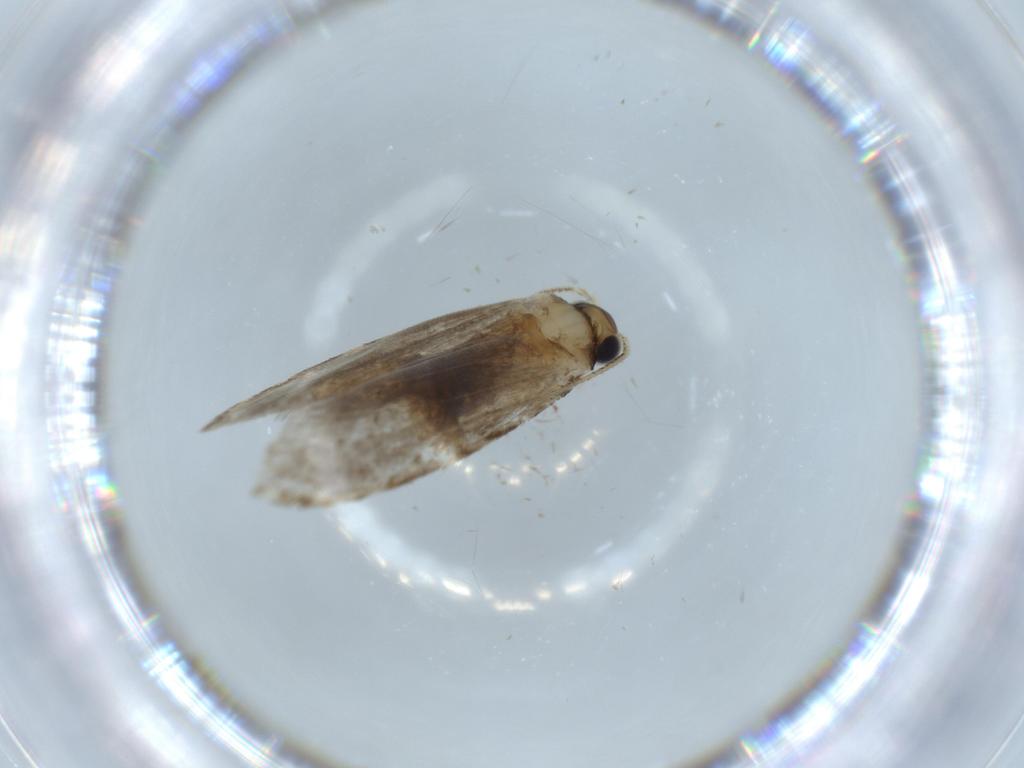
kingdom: Animalia
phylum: Arthropoda
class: Insecta
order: Lepidoptera
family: Tineidae
